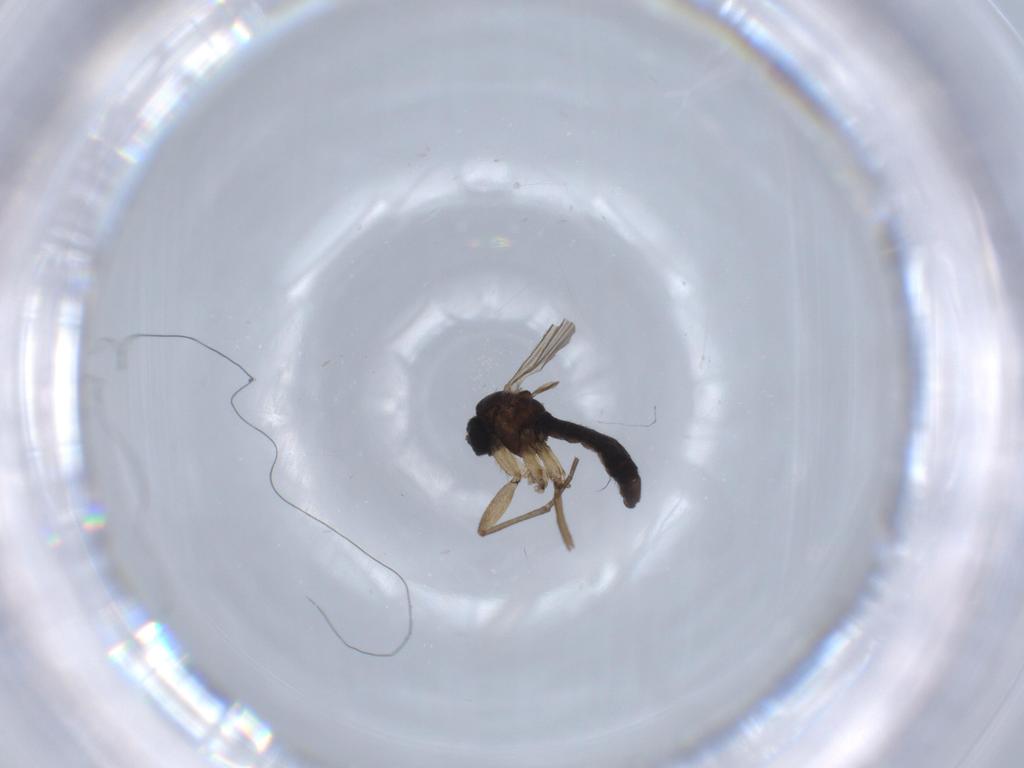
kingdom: Animalia
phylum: Arthropoda
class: Insecta
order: Diptera
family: Sciaridae
